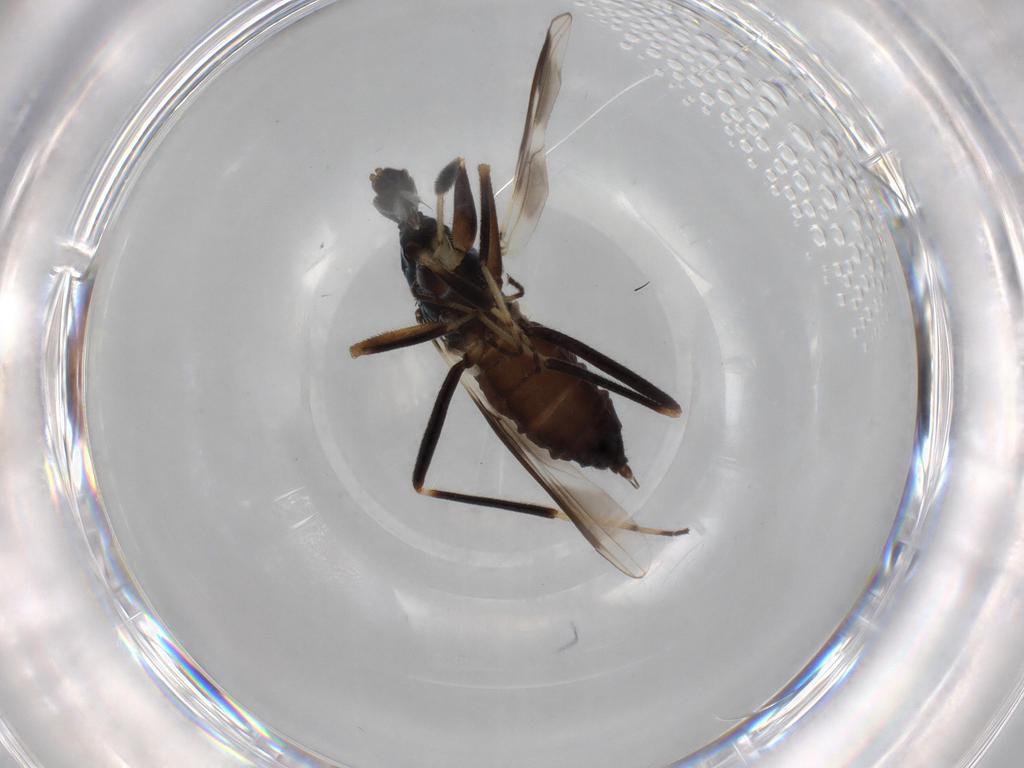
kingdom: Animalia
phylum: Arthropoda
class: Insecta
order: Diptera
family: Hybotidae
